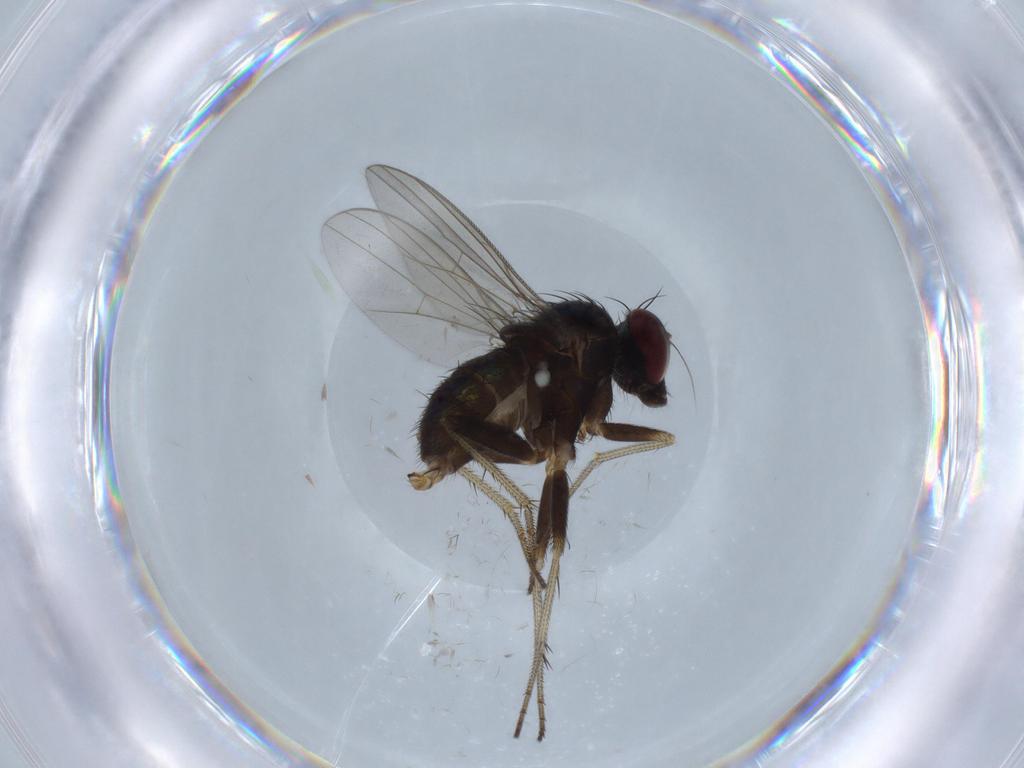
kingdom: Animalia
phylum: Arthropoda
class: Insecta
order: Diptera
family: Dolichopodidae
